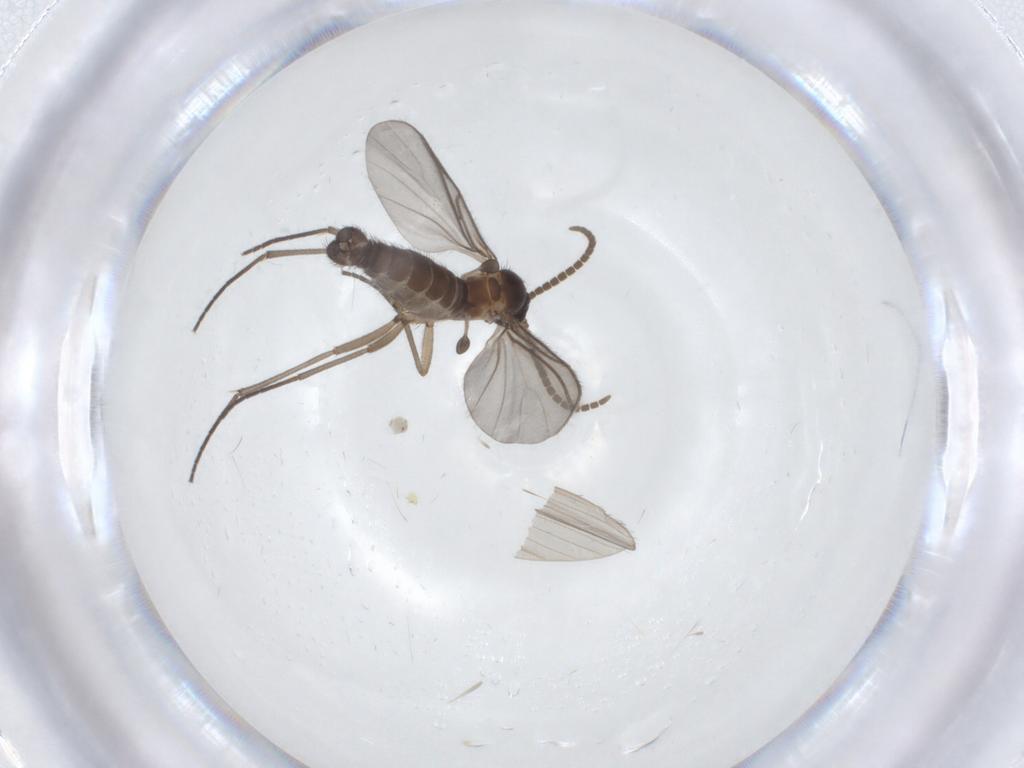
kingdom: Animalia
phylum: Arthropoda
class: Insecta
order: Diptera
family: Limoniidae
